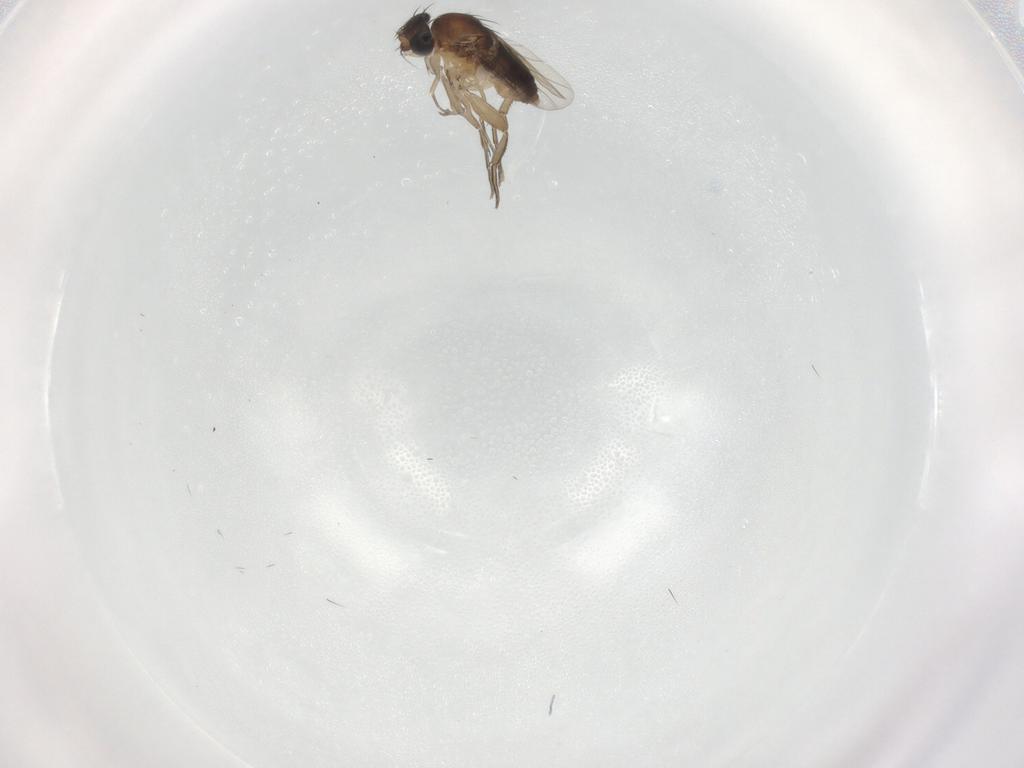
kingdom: Animalia
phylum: Arthropoda
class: Insecta
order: Diptera
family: Phoridae
